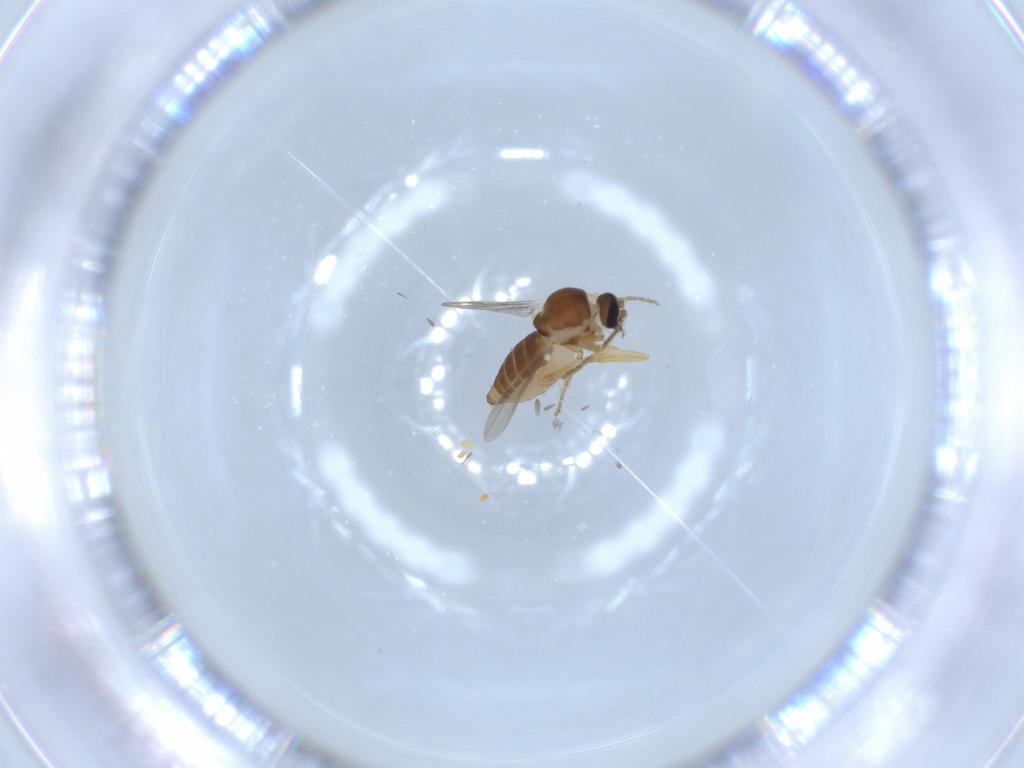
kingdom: Animalia
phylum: Arthropoda
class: Insecta
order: Diptera
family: Ceratopogonidae
